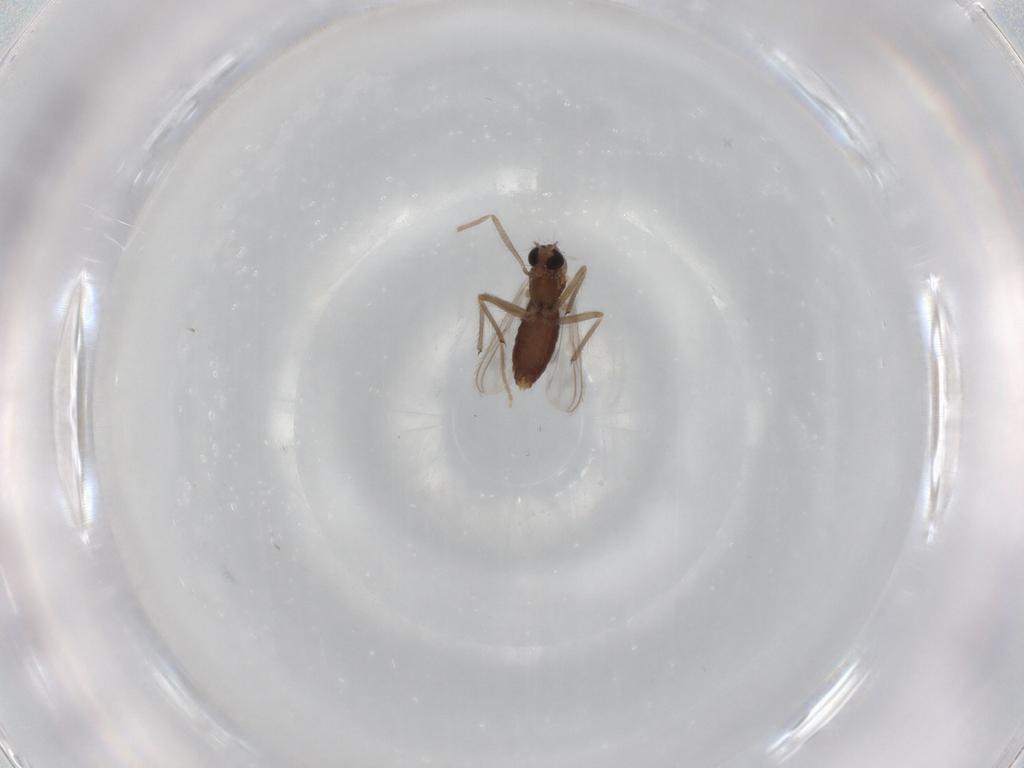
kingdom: Animalia
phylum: Arthropoda
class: Insecta
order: Diptera
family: Chironomidae
